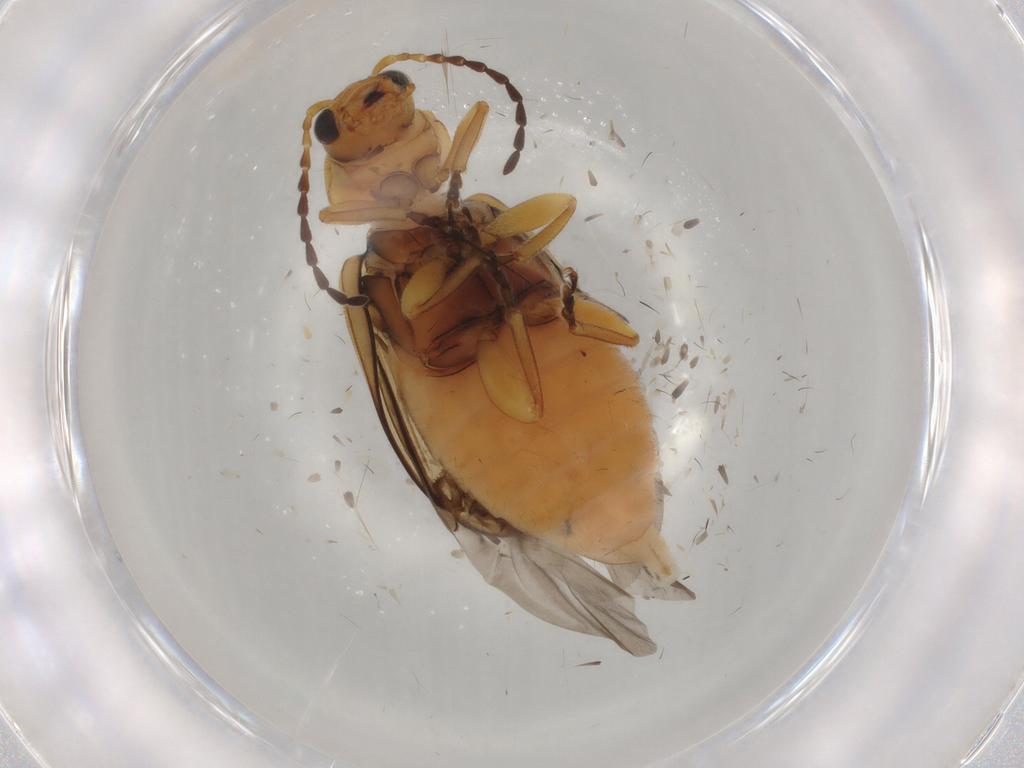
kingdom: Animalia
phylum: Arthropoda
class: Insecta
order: Coleoptera
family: Chrysomelidae
